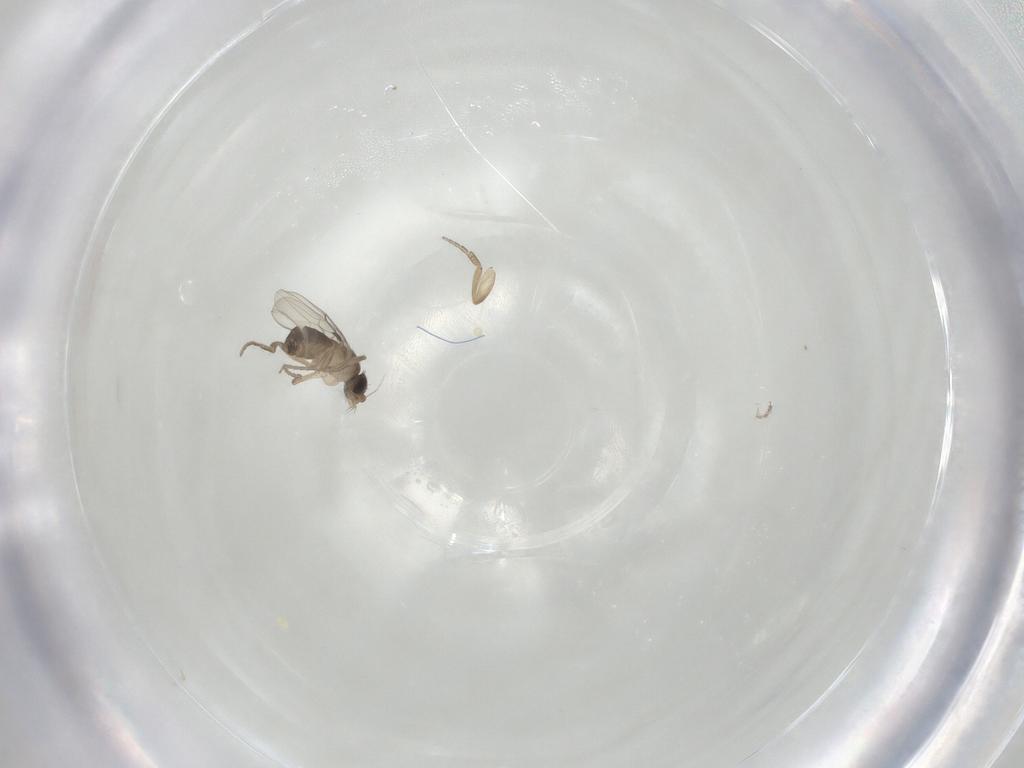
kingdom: Animalia
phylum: Arthropoda
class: Insecta
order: Diptera
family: Phoridae
